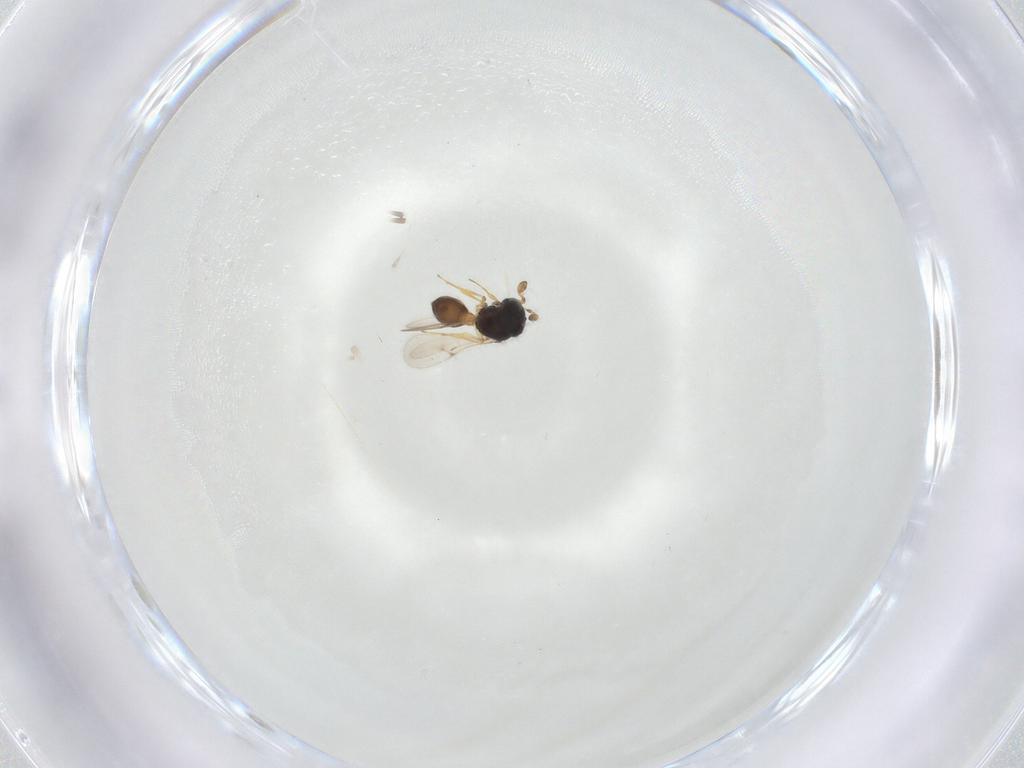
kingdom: Animalia
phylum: Arthropoda
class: Insecta
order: Hymenoptera
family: Scelionidae
